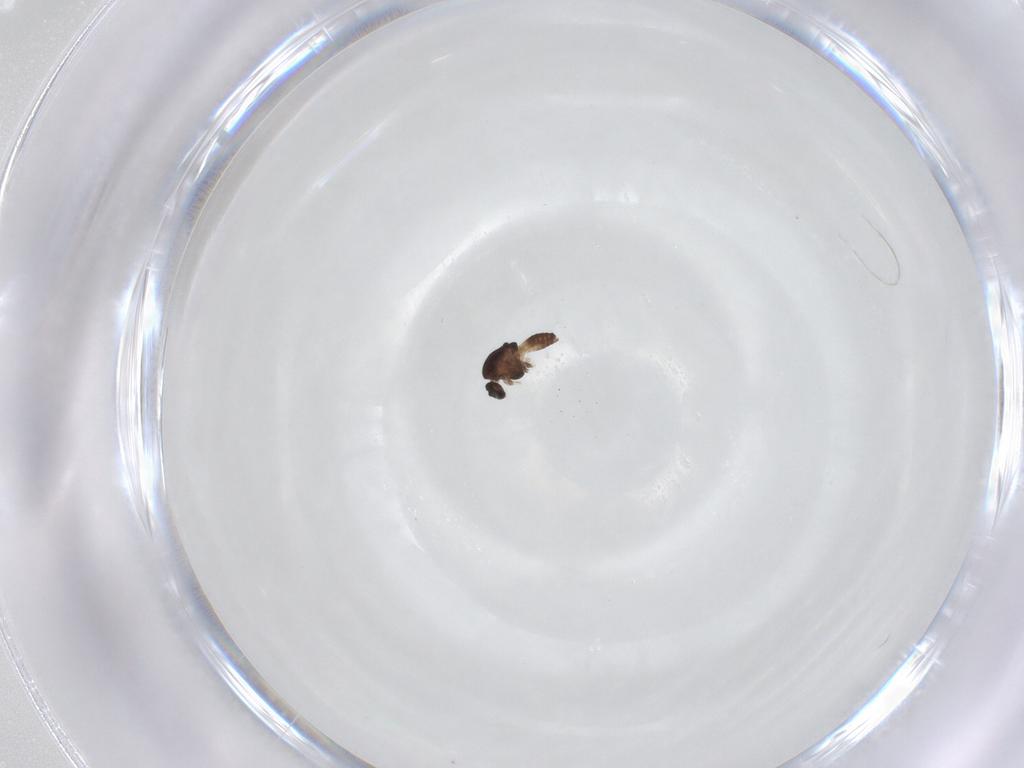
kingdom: Animalia
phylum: Arthropoda
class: Insecta
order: Diptera
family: Chironomidae
